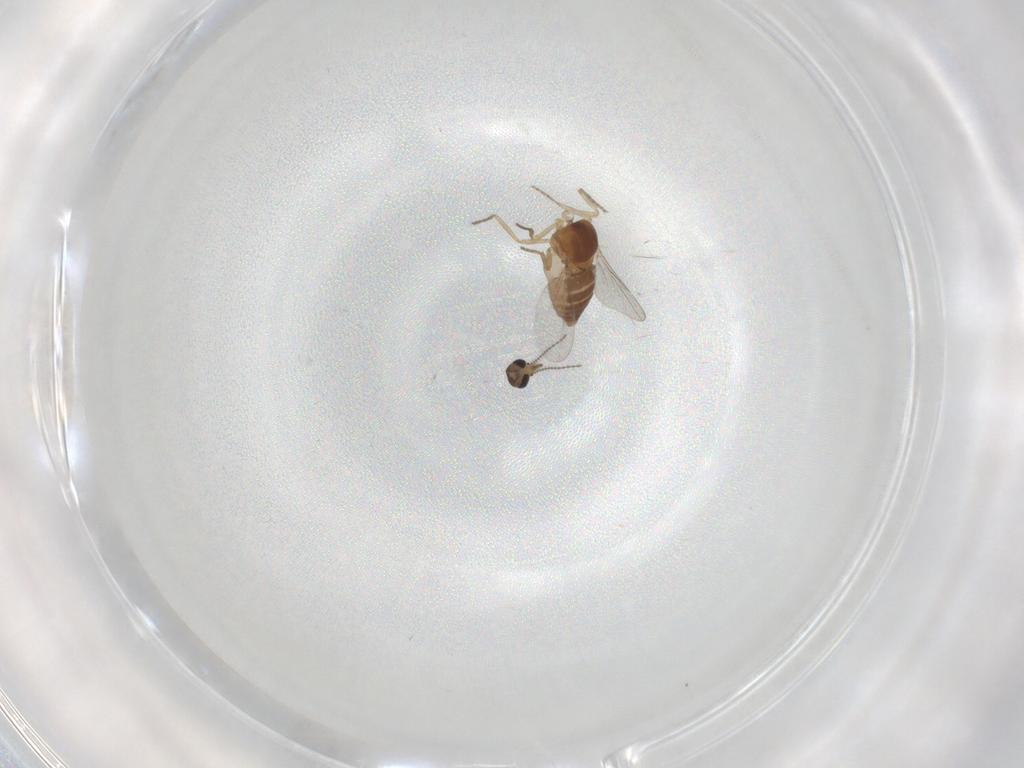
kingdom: Animalia
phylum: Arthropoda
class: Insecta
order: Diptera
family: Ceratopogonidae
